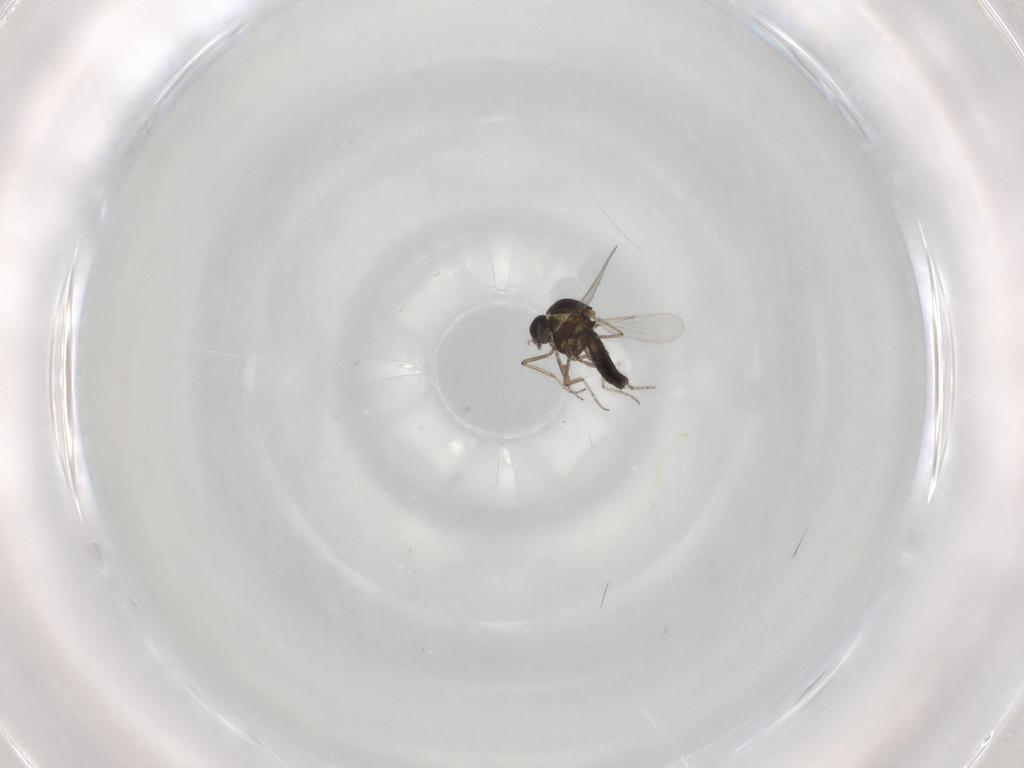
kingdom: Animalia
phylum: Arthropoda
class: Insecta
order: Diptera
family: Ceratopogonidae
